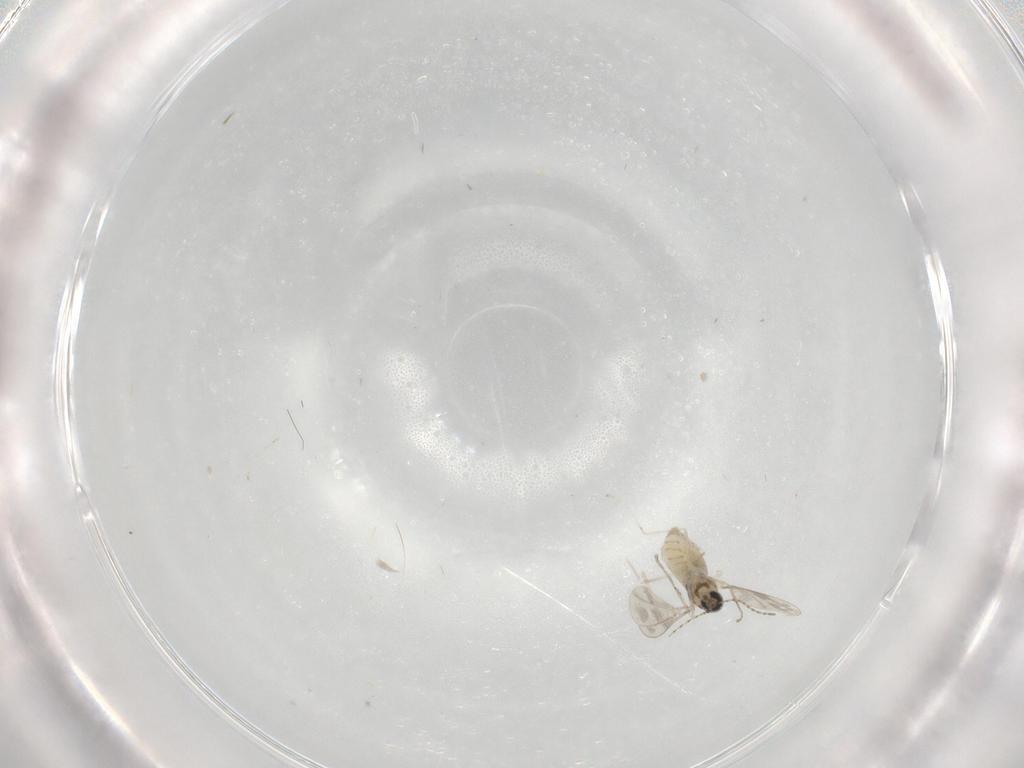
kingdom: Animalia
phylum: Arthropoda
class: Insecta
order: Diptera
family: Cecidomyiidae
